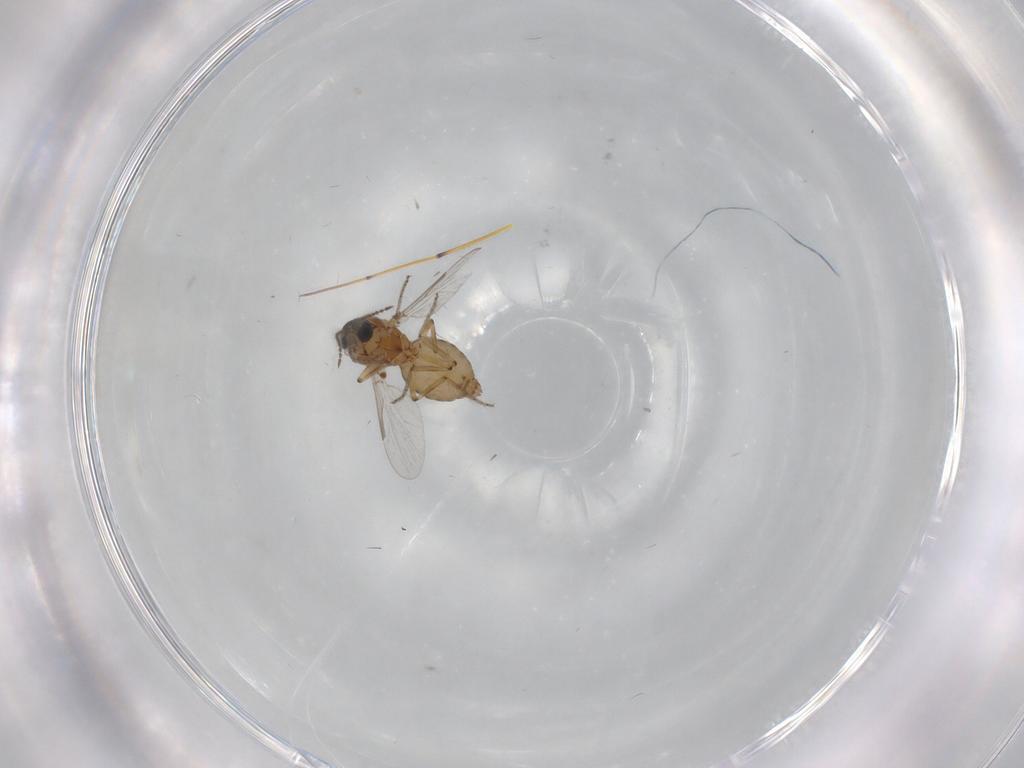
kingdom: Animalia
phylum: Arthropoda
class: Insecta
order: Diptera
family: Ceratopogonidae
